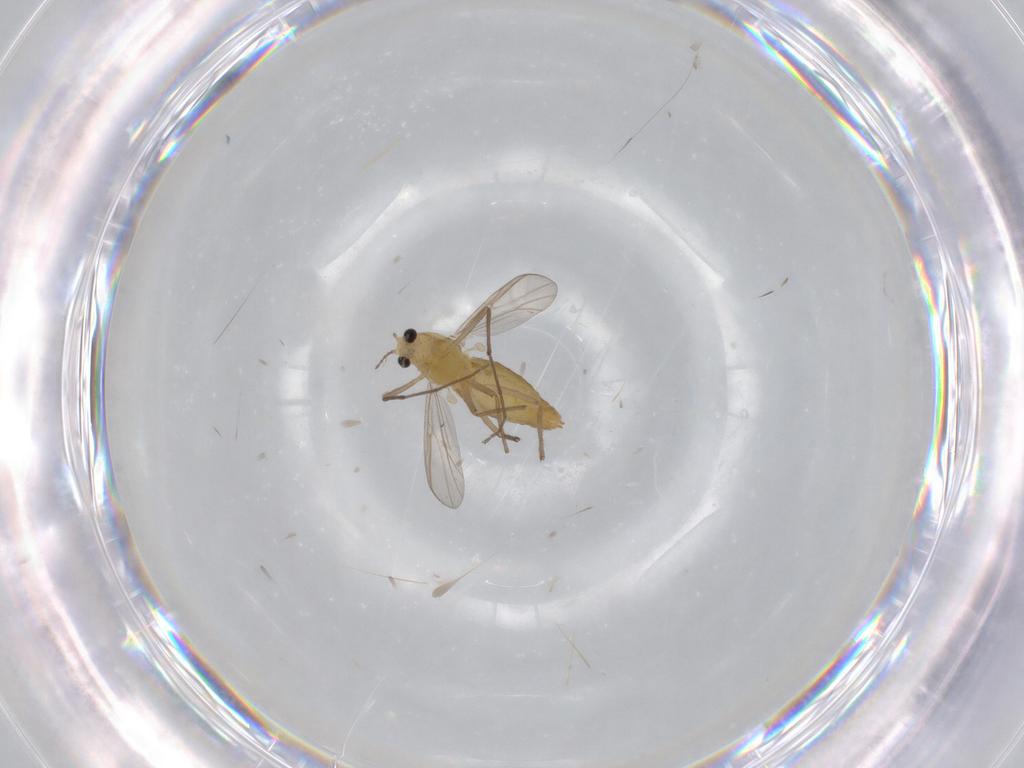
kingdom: Animalia
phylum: Arthropoda
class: Insecta
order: Diptera
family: Chironomidae
